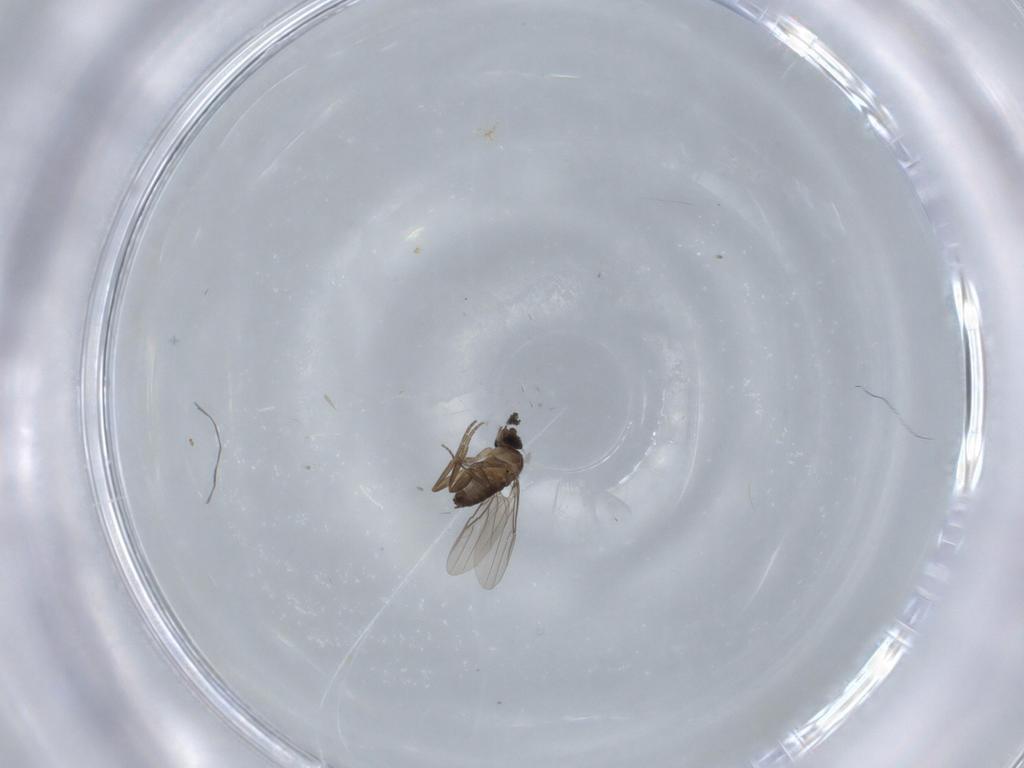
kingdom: Animalia
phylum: Arthropoda
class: Insecta
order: Diptera
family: Phoridae
